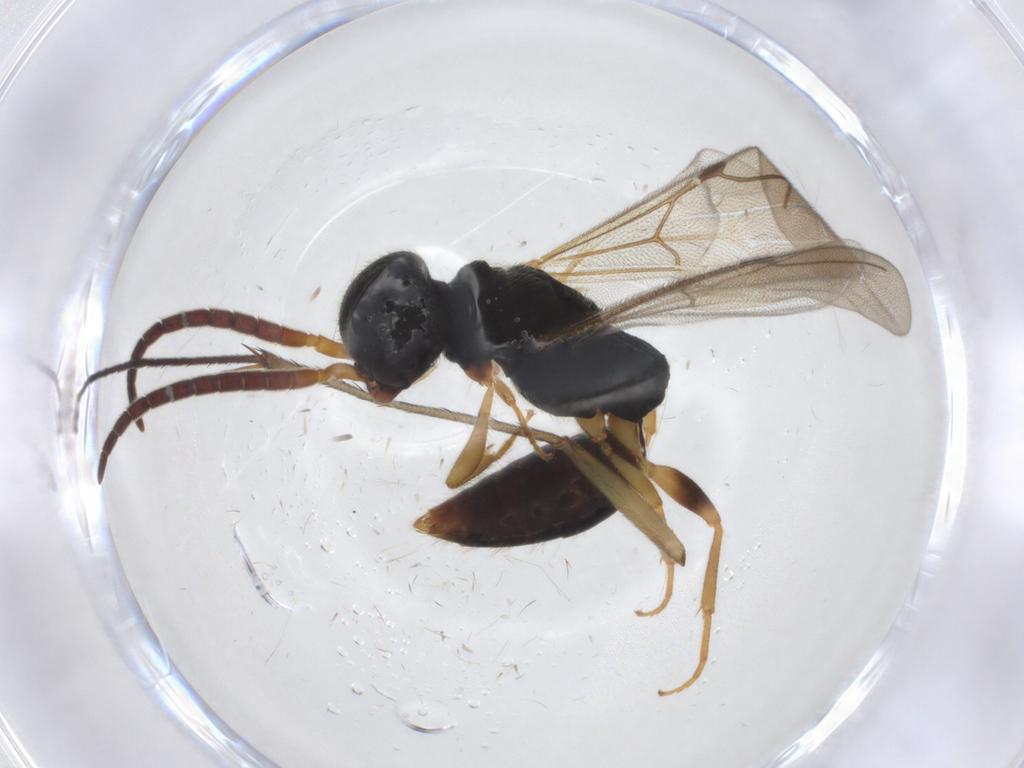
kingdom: Animalia
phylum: Arthropoda
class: Insecta
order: Hymenoptera
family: Bethylidae
